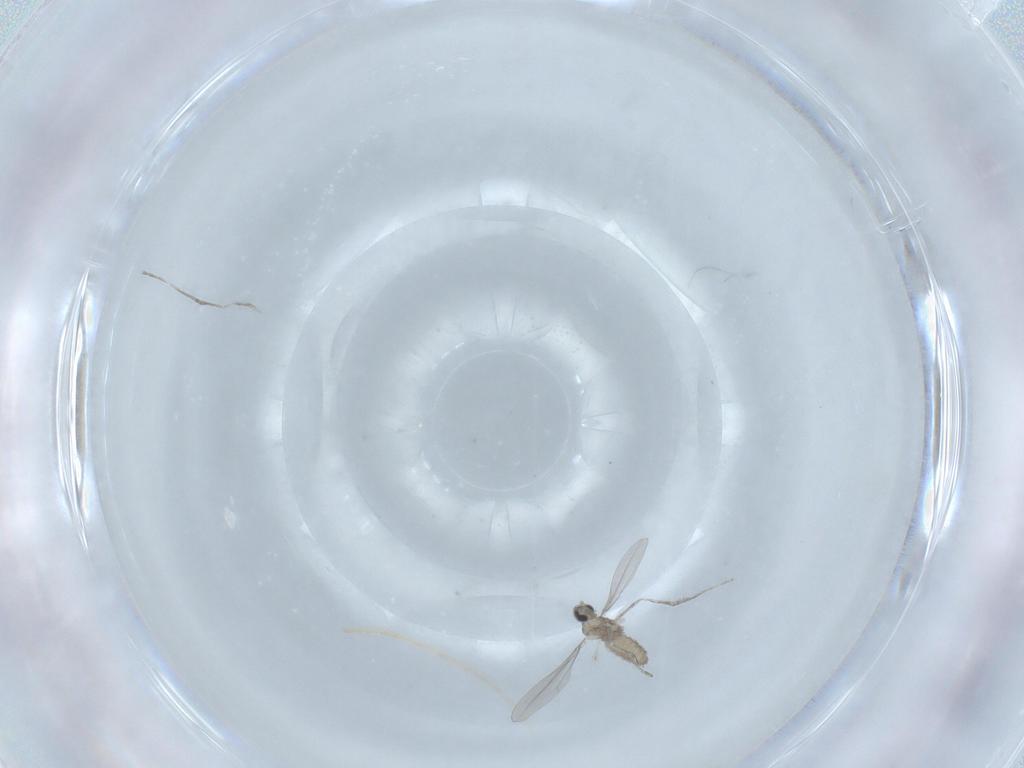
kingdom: Animalia
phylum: Arthropoda
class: Insecta
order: Diptera
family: Cecidomyiidae
